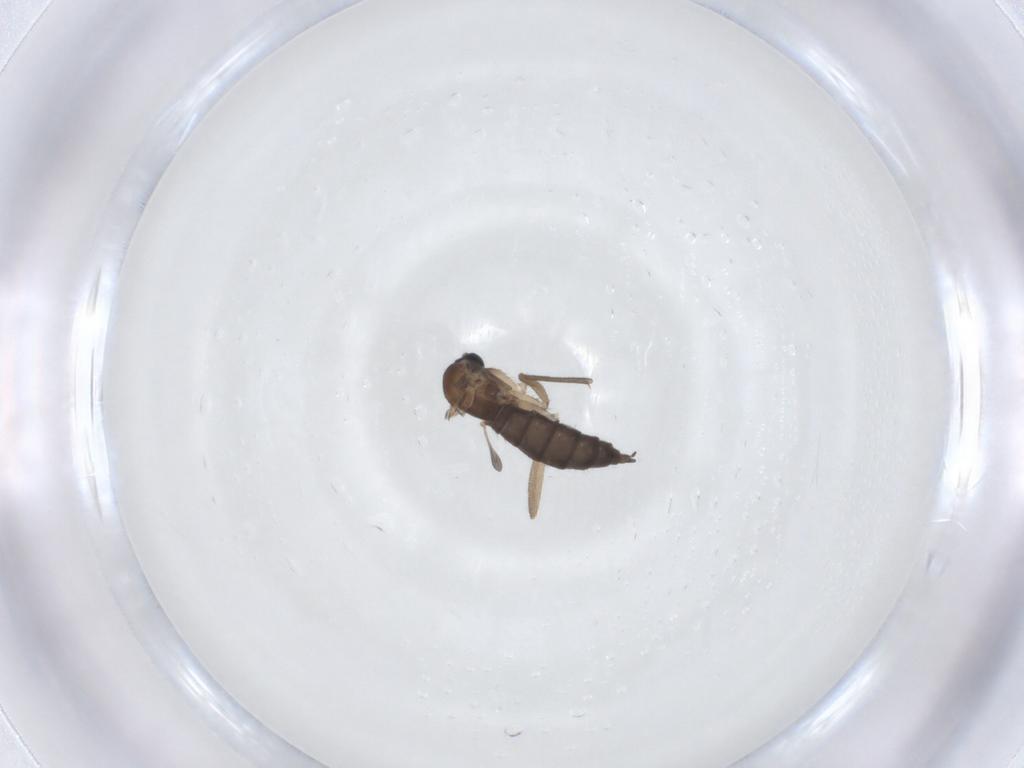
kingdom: Animalia
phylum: Arthropoda
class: Insecta
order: Diptera
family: Sciaridae
